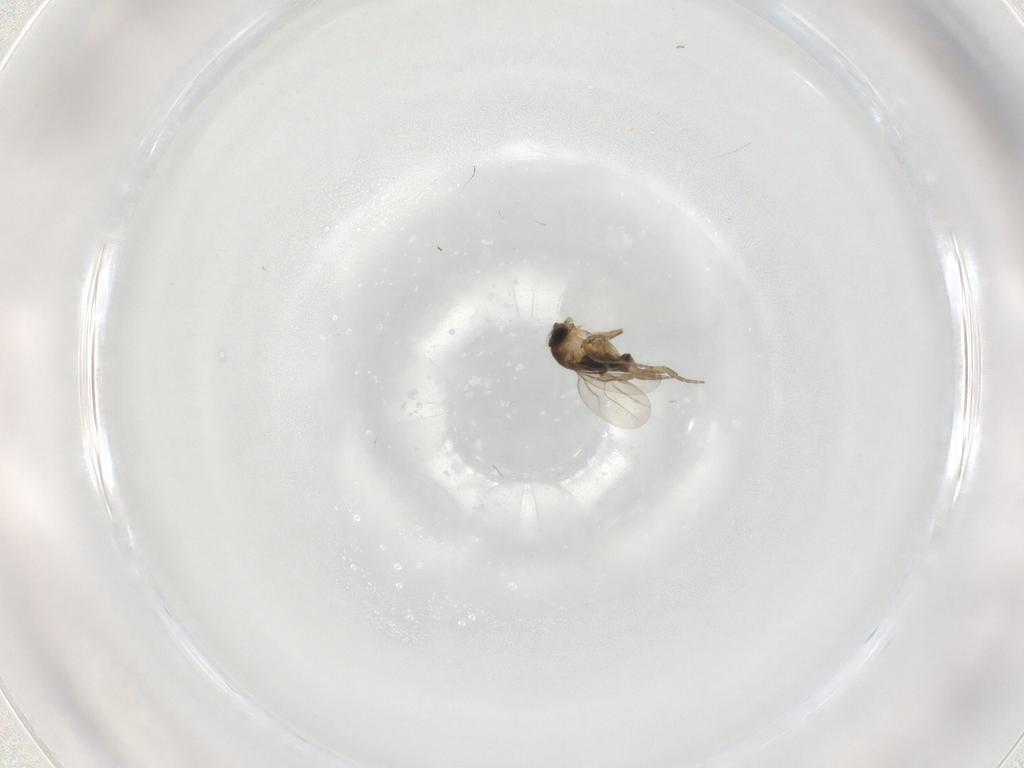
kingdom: Animalia
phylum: Arthropoda
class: Insecta
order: Diptera
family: Phoridae
